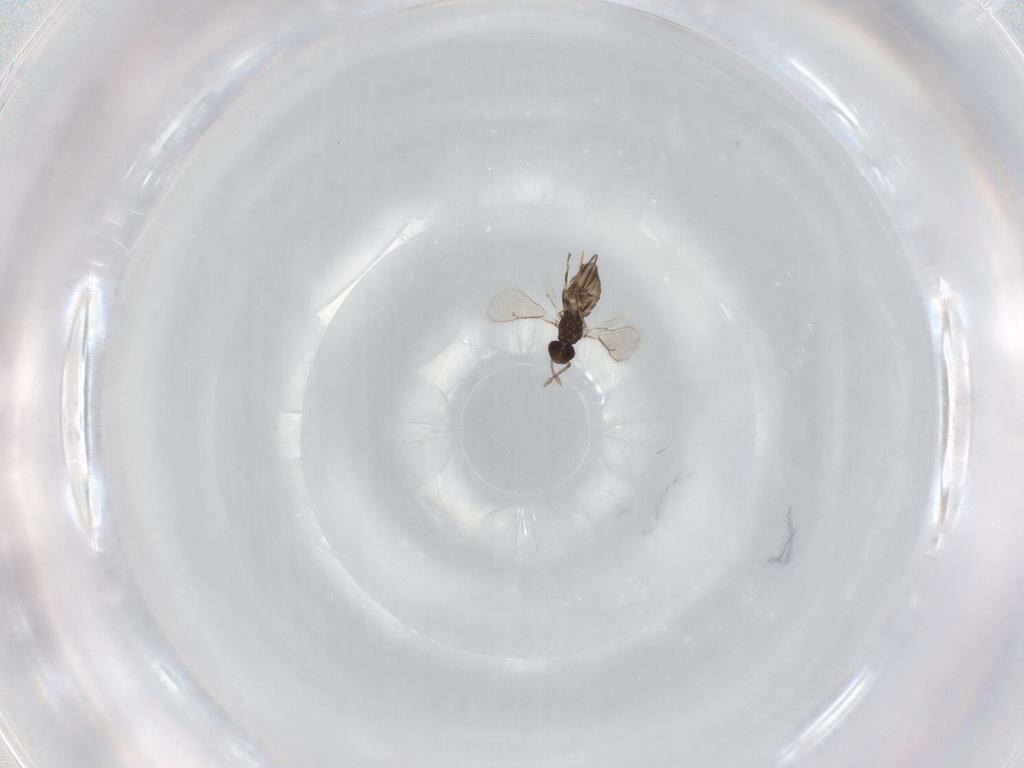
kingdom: Animalia
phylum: Arthropoda
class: Insecta
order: Hymenoptera
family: Eulophidae
